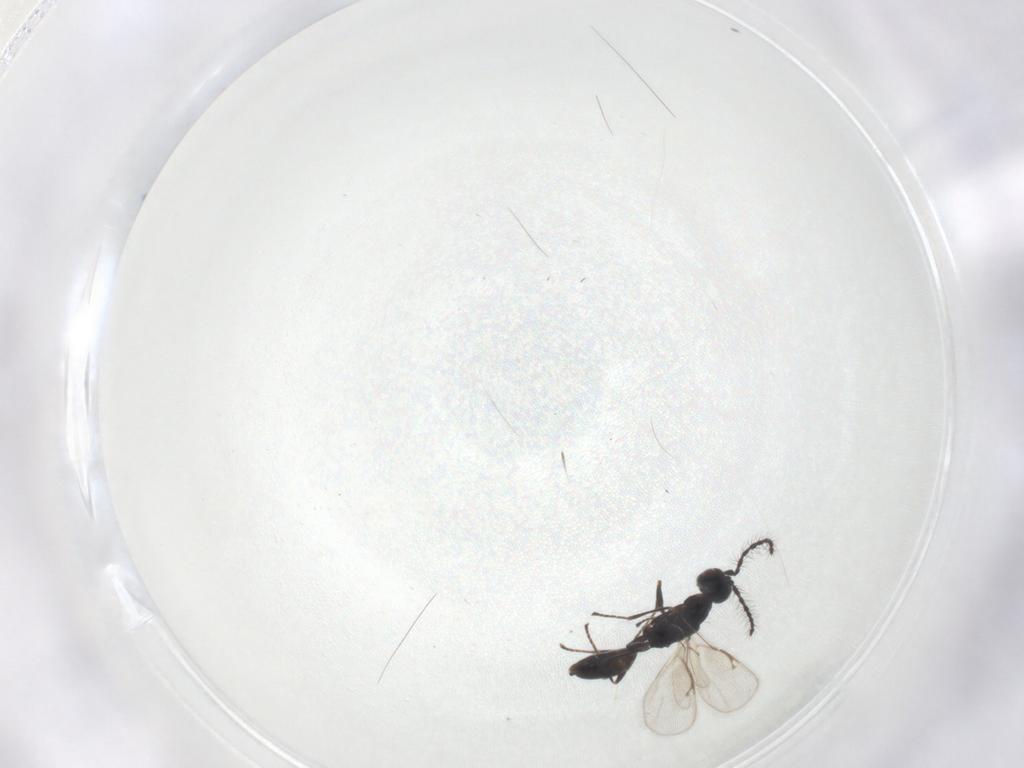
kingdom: Animalia
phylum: Arthropoda
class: Insecta
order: Hymenoptera
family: Eurytomidae
